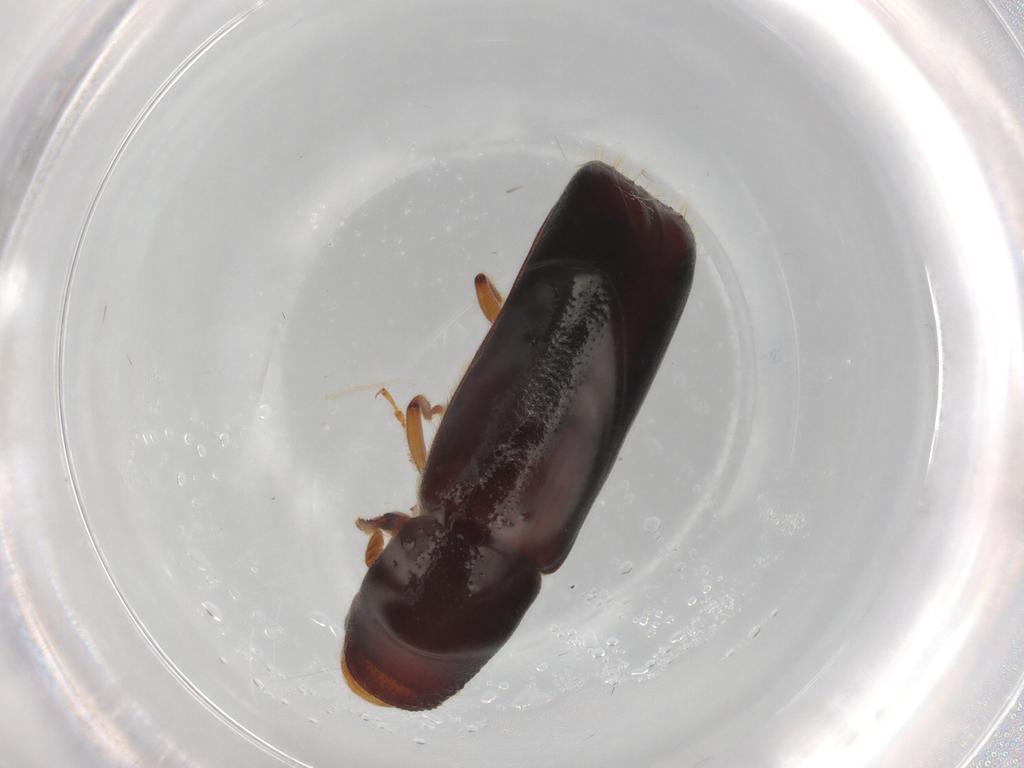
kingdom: Animalia
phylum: Arthropoda
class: Insecta
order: Coleoptera
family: Curculionidae
